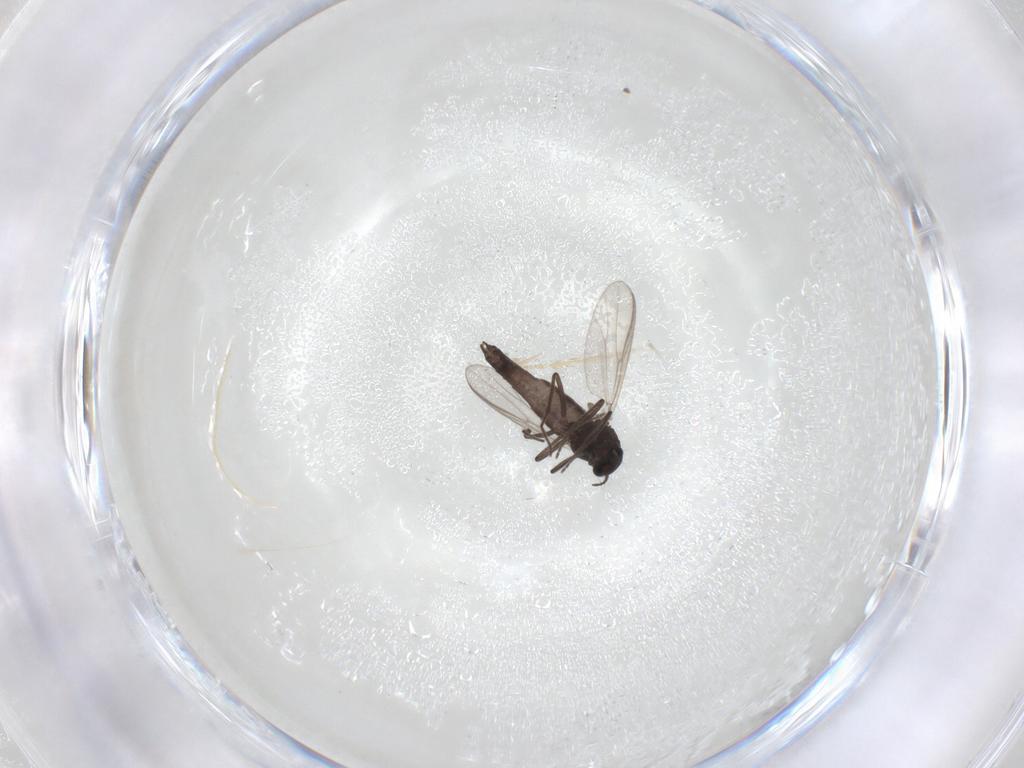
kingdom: Animalia
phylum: Arthropoda
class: Insecta
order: Diptera
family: Chironomidae
